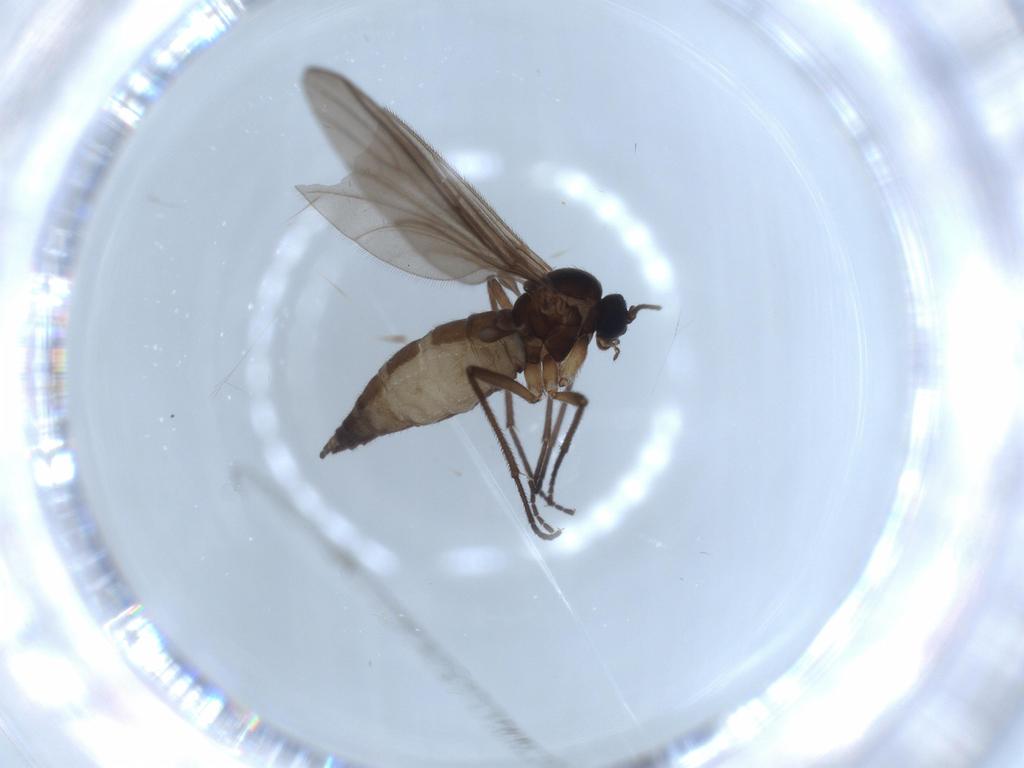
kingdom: Animalia
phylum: Arthropoda
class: Insecta
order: Diptera
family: Sciaridae
